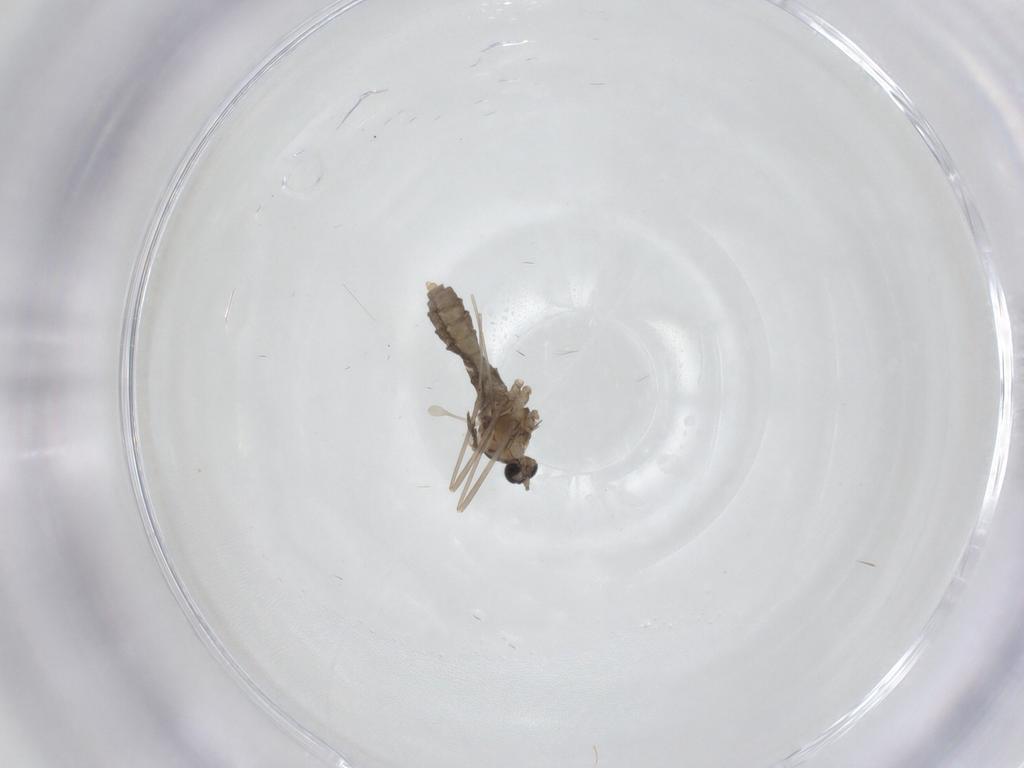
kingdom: Animalia
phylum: Arthropoda
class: Insecta
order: Diptera
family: Cecidomyiidae
